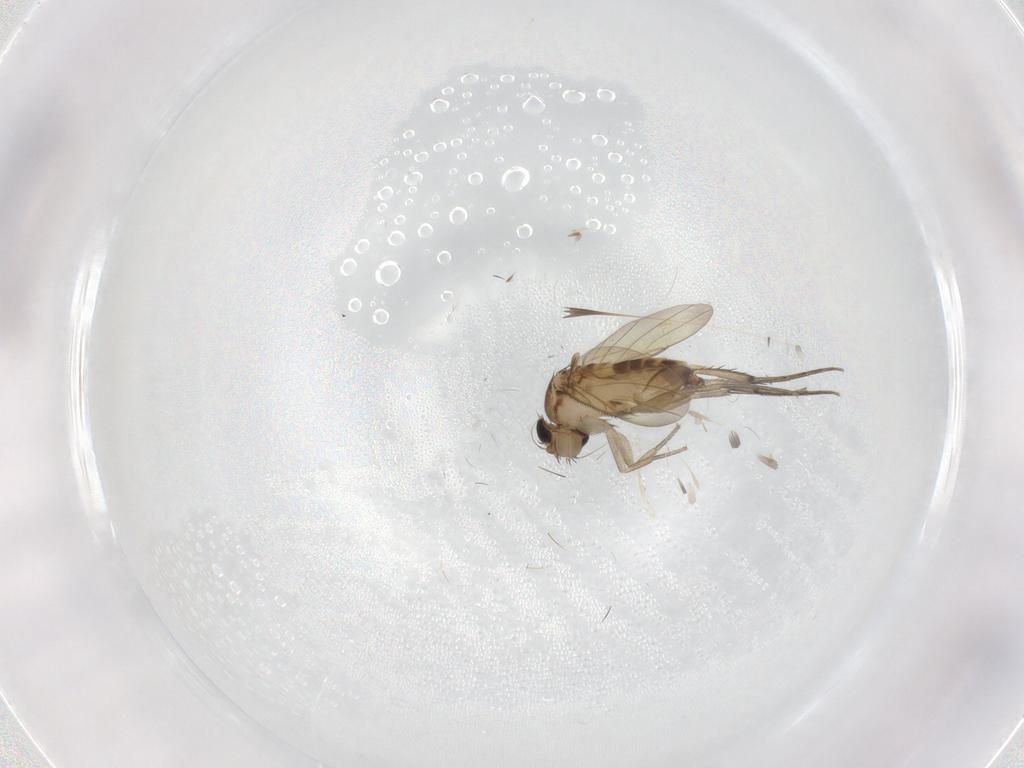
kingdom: Animalia
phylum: Arthropoda
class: Insecta
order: Diptera
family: Phoridae
